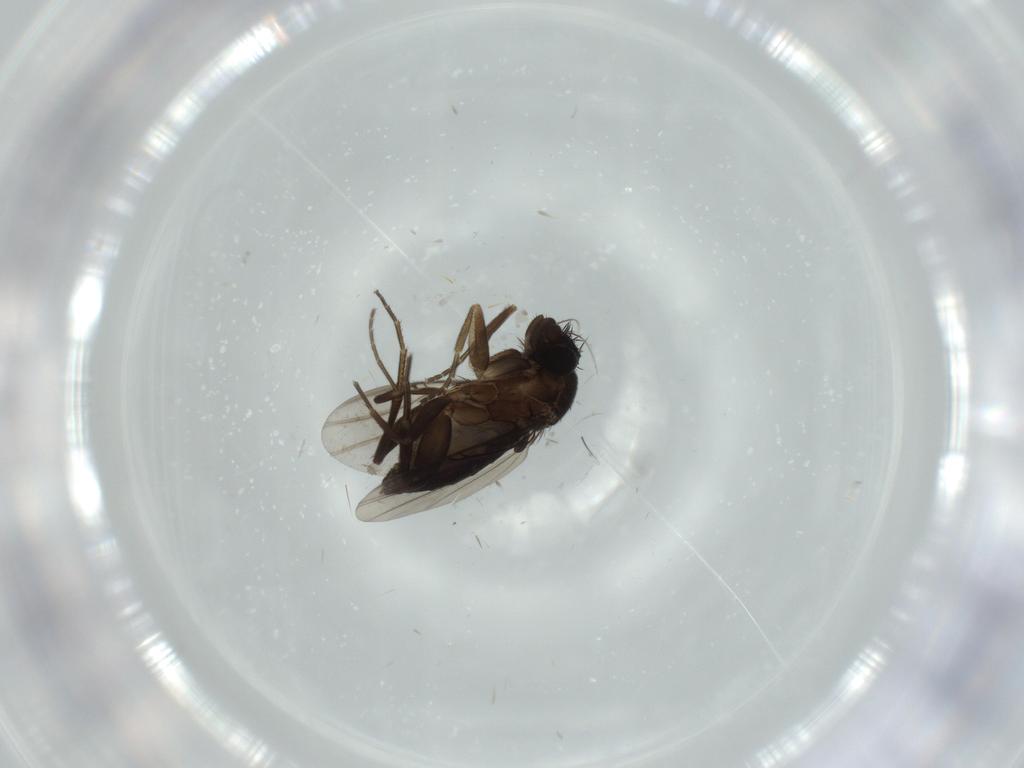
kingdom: Animalia
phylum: Arthropoda
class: Insecta
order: Diptera
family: Phoridae
